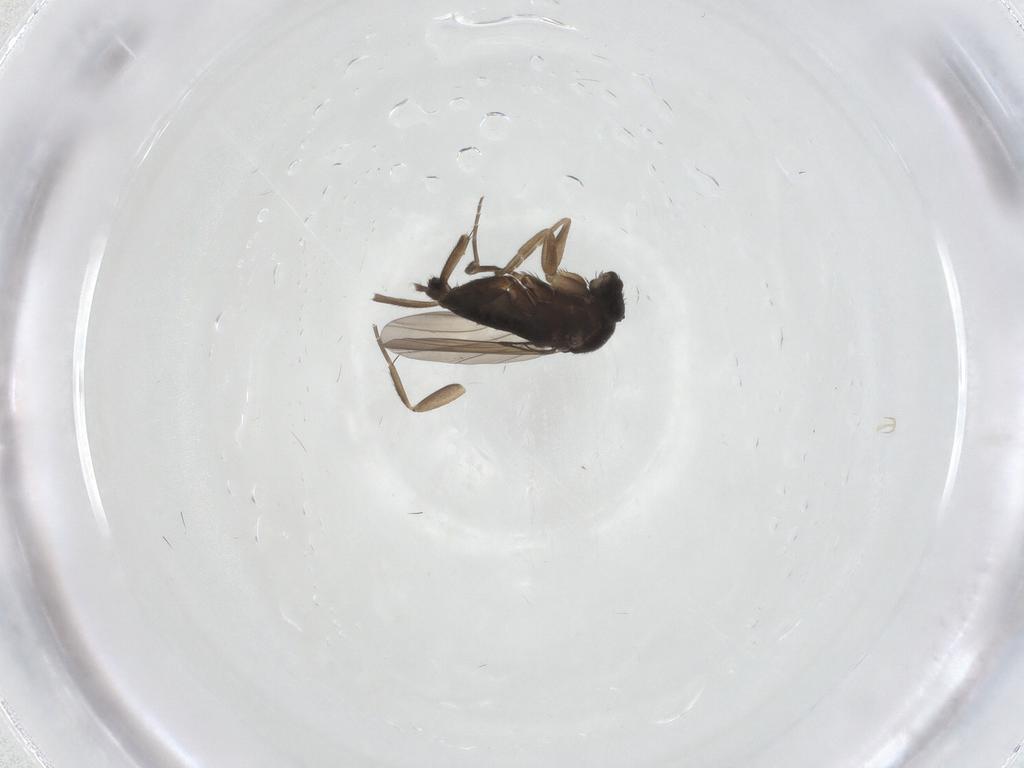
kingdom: Animalia
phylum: Arthropoda
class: Insecta
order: Diptera
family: Phoridae
